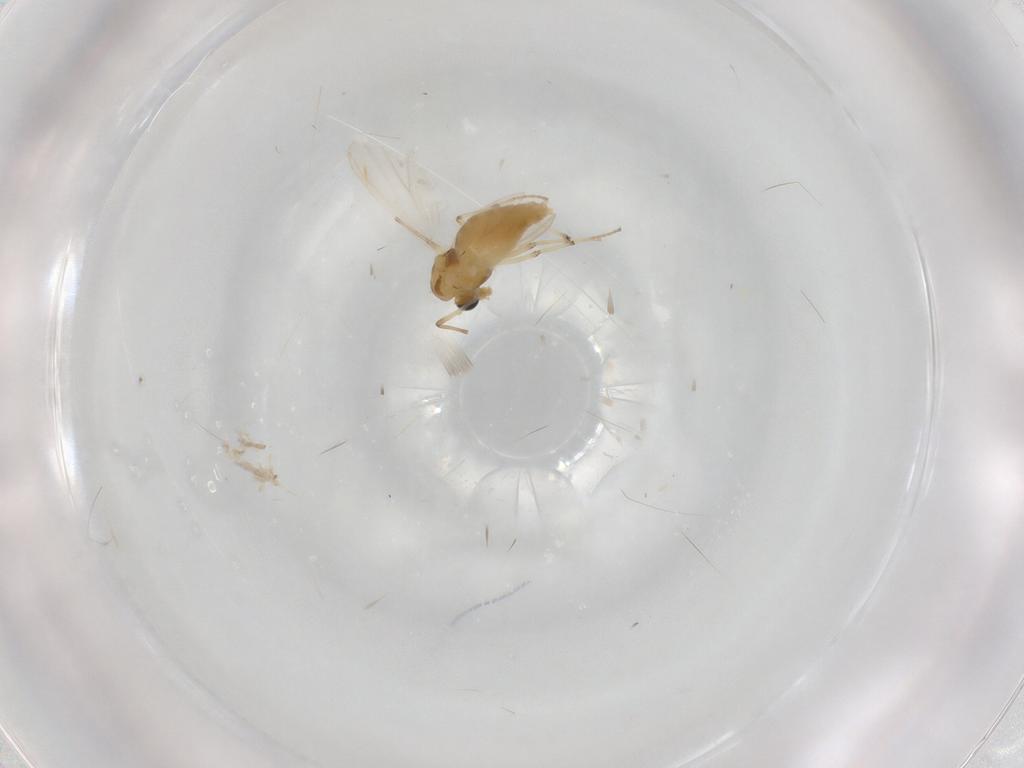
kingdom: Animalia
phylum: Arthropoda
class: Insecta
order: Diptera
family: Chironomidae
